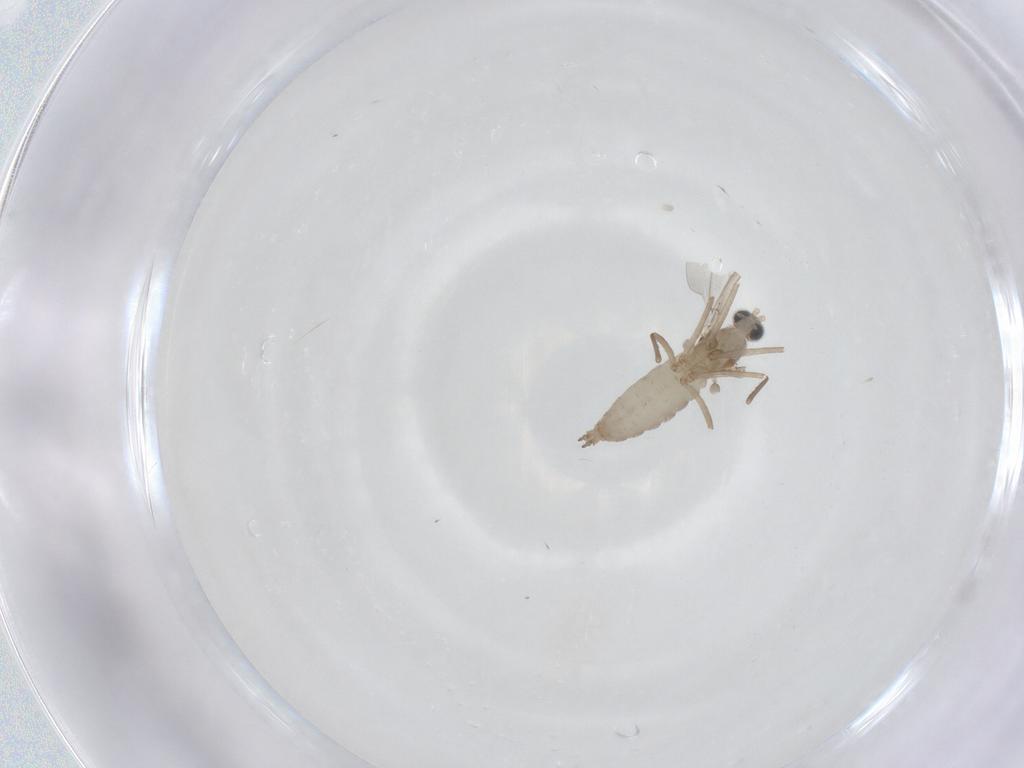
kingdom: Animalia
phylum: Arthropoda
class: Insecta
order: Diptera
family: Cecidomyiidae
